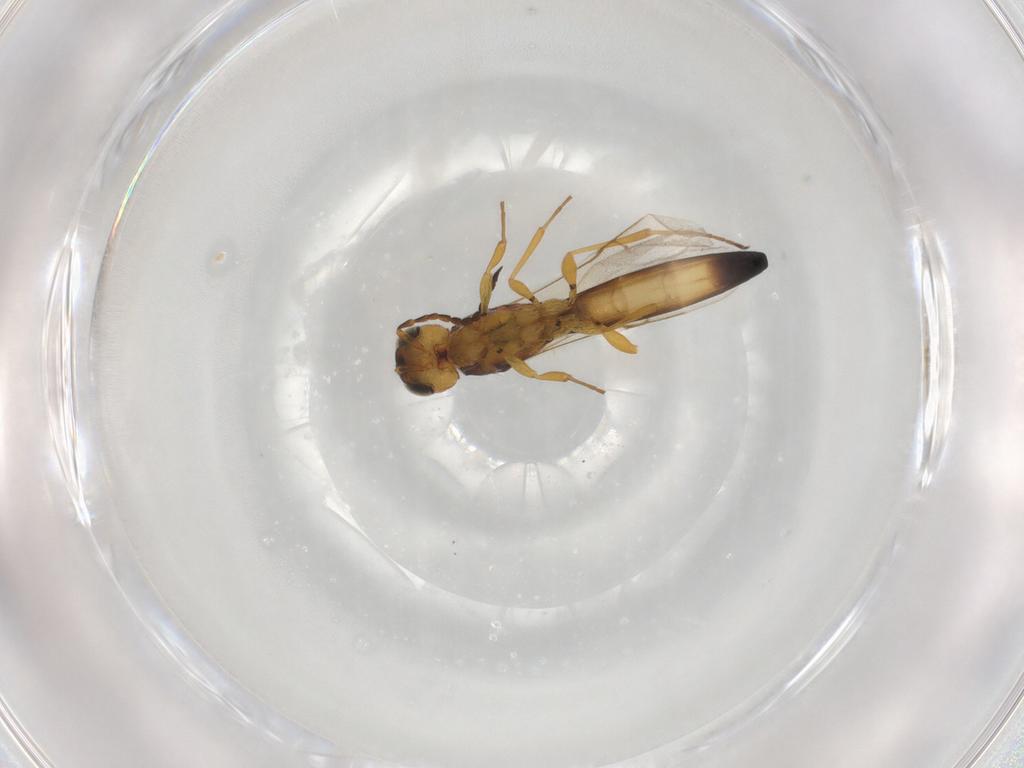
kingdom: Animalia
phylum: Arthropoda
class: Insecta
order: Hymenoptera
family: Scelionidae
